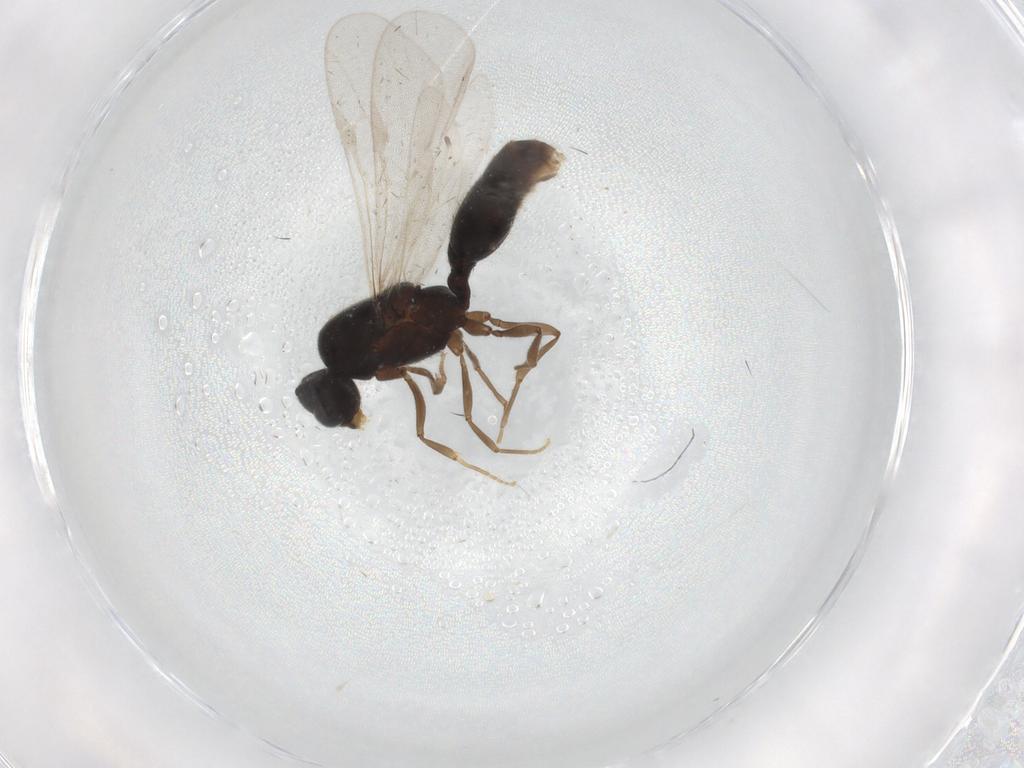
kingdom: Animalia
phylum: Arthropoda
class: Insecta
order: Hymenoptera
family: Formicidae
